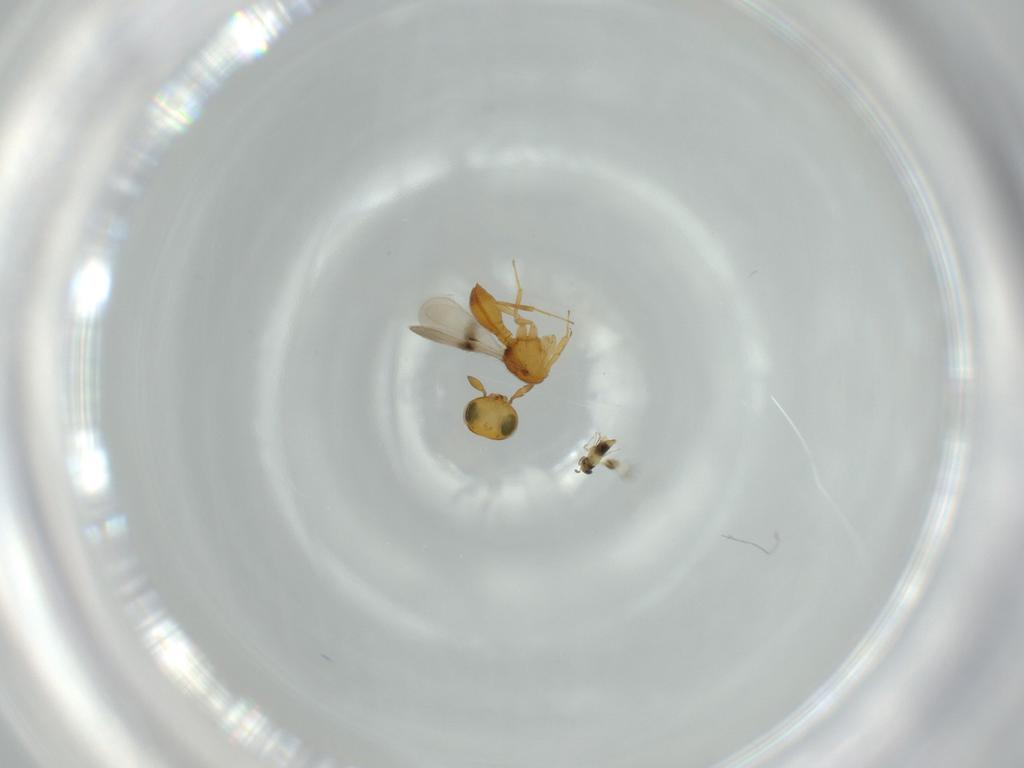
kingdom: Animalia
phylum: Arthropoda
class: Insecta
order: Hymenoptera
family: Scelionidae
